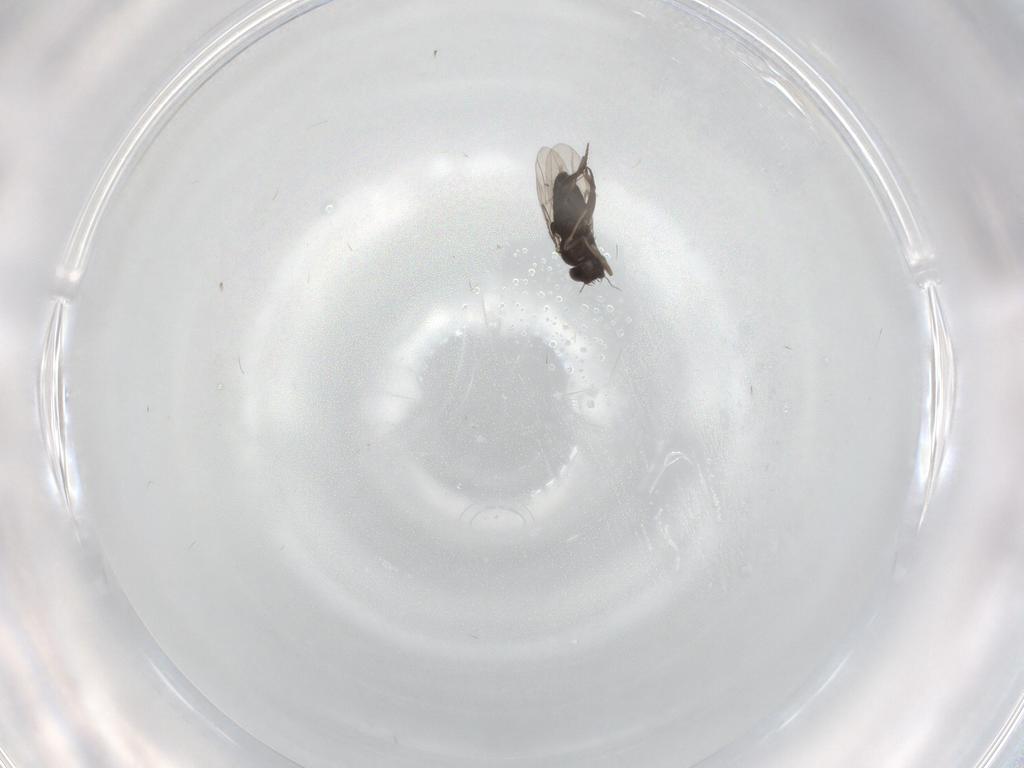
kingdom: Animalia
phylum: Arthropoda
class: Insecta
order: Diptera
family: Phoridae
